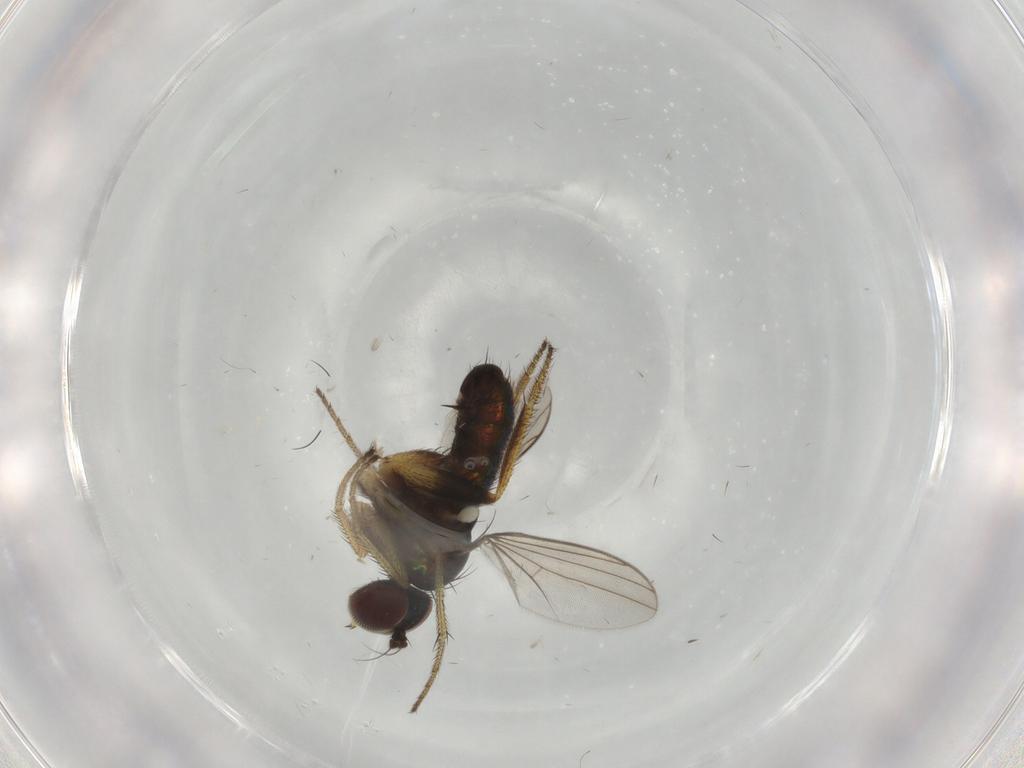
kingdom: Animalia
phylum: Arthropoda
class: Insecta
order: Diptera
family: Dolichopodidae
